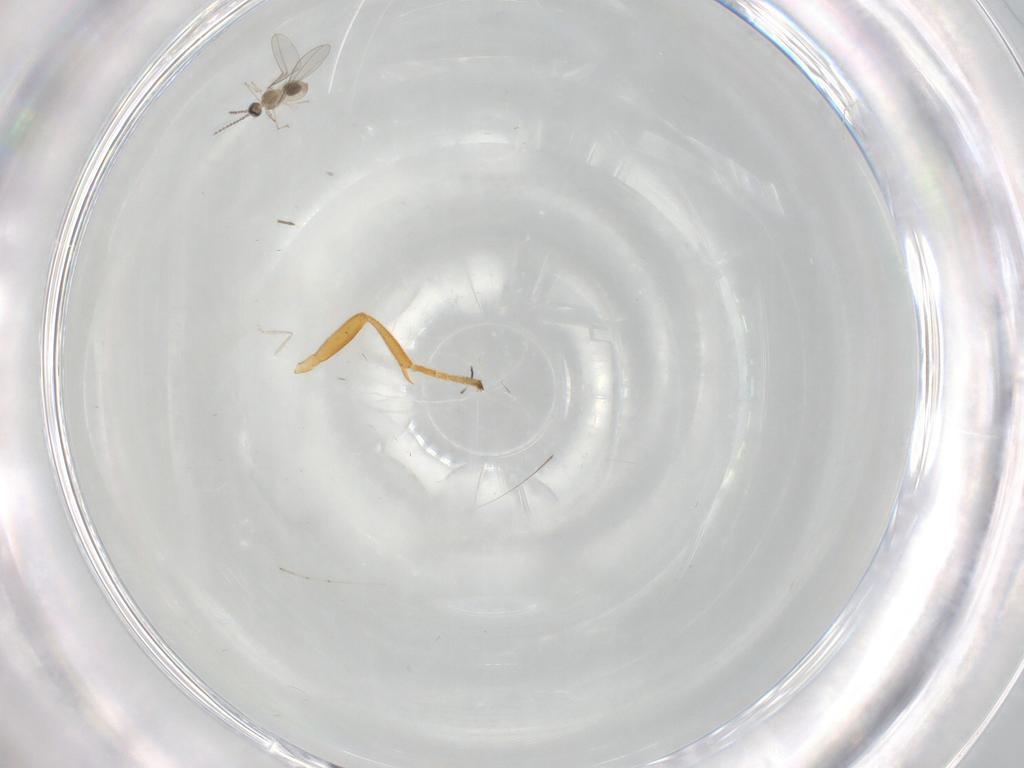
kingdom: Animalia
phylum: Arthropoda
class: Insecta
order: Diptera
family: Cecidomyiidae
